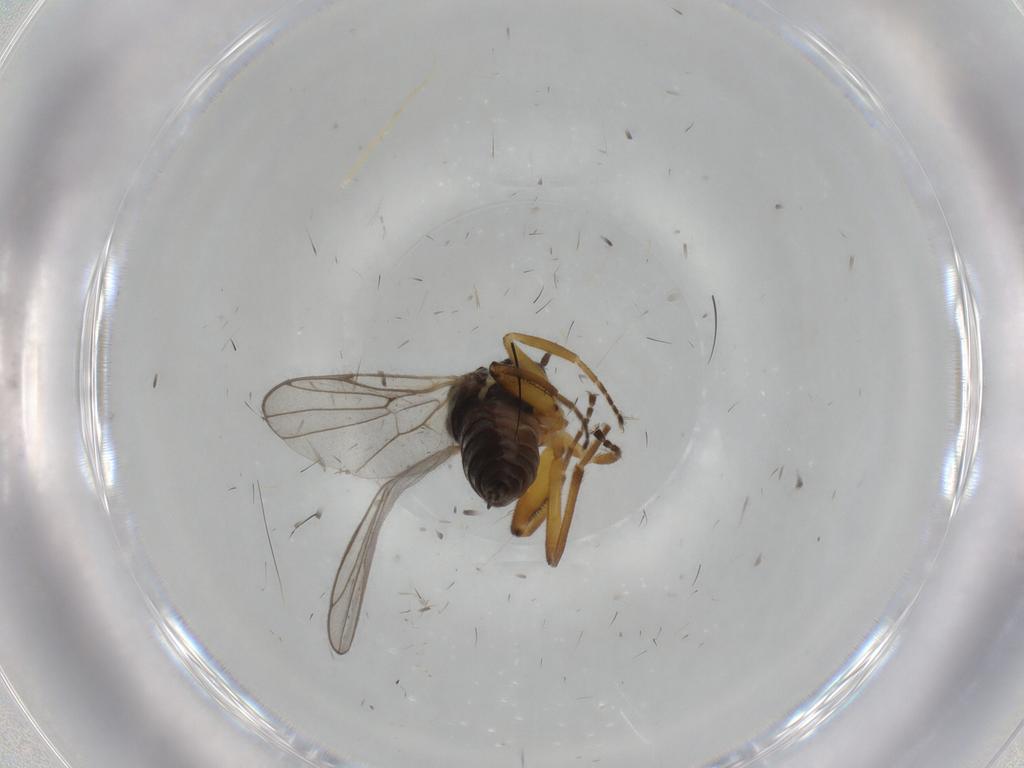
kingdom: Animalia
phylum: Arthropoda
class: Insecta
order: Diptera
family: Hybotidae
